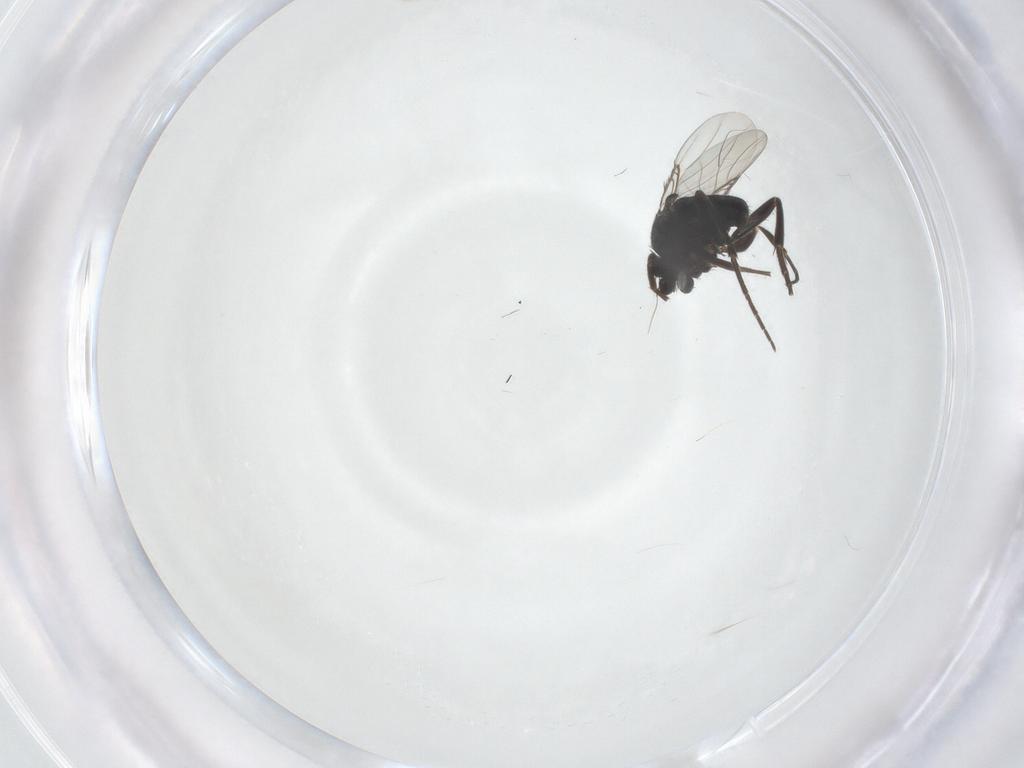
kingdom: Animalia
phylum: Arthropoda
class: Insecta
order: Diptera
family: Phoridae
